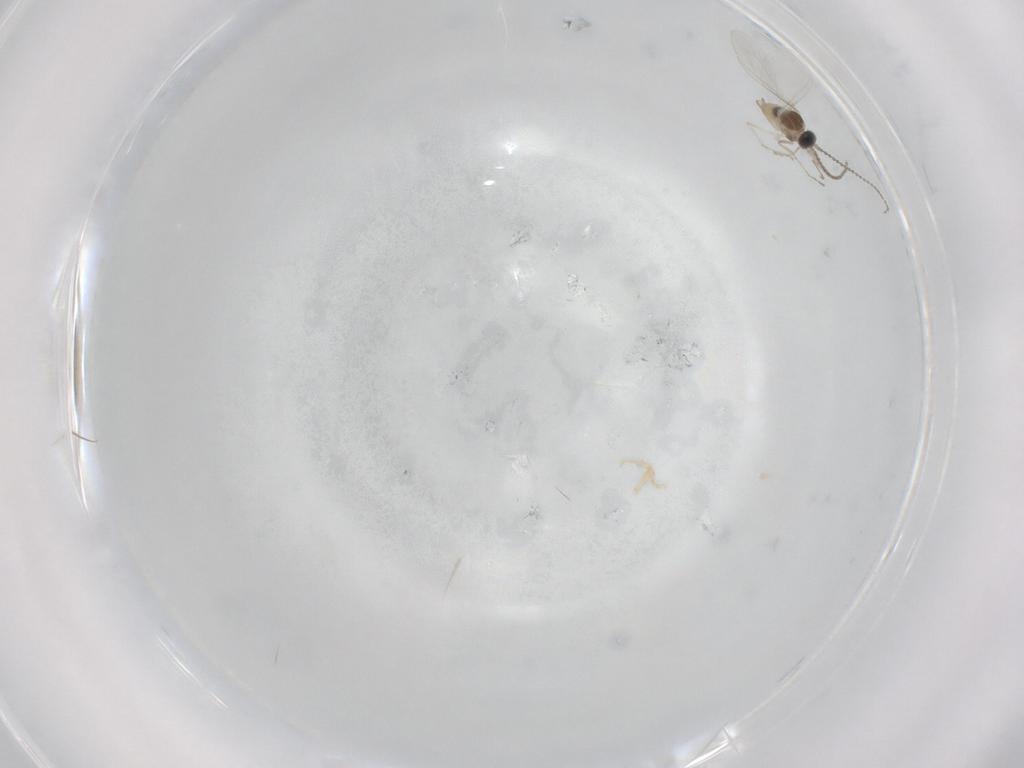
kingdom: Animalia
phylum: Arthropoda
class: Insecta
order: Diptera
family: Cecidomyiidae
